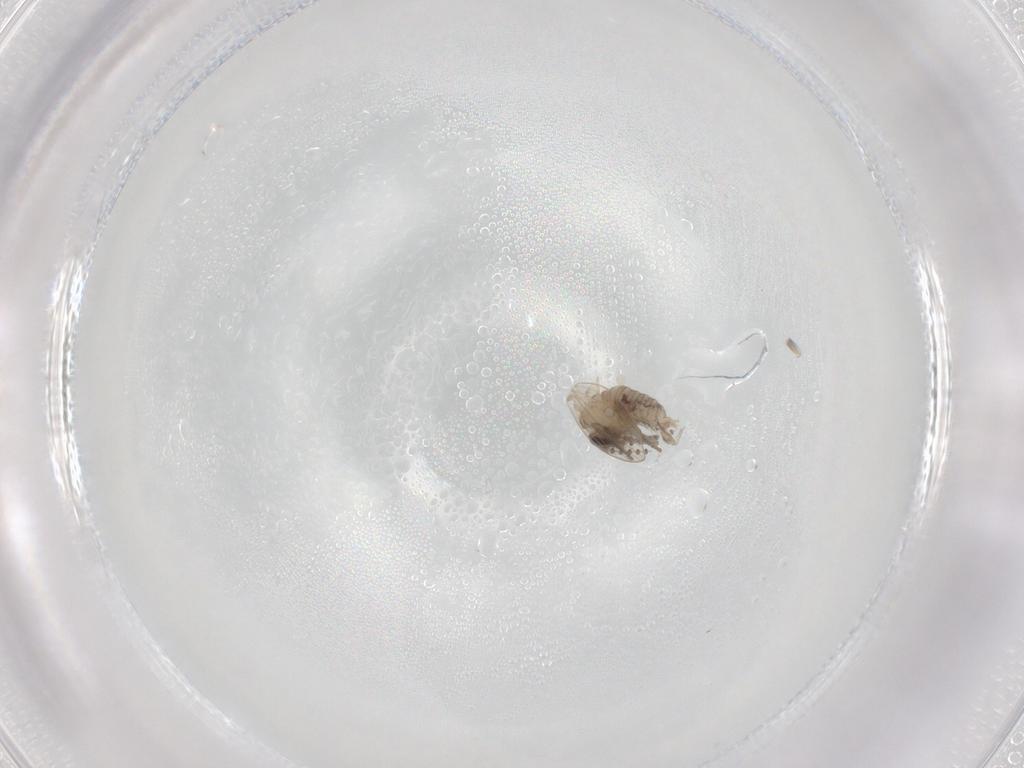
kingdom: Animalia
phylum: Arthropoda
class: Insecta
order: Diptera
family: Psychodidae
